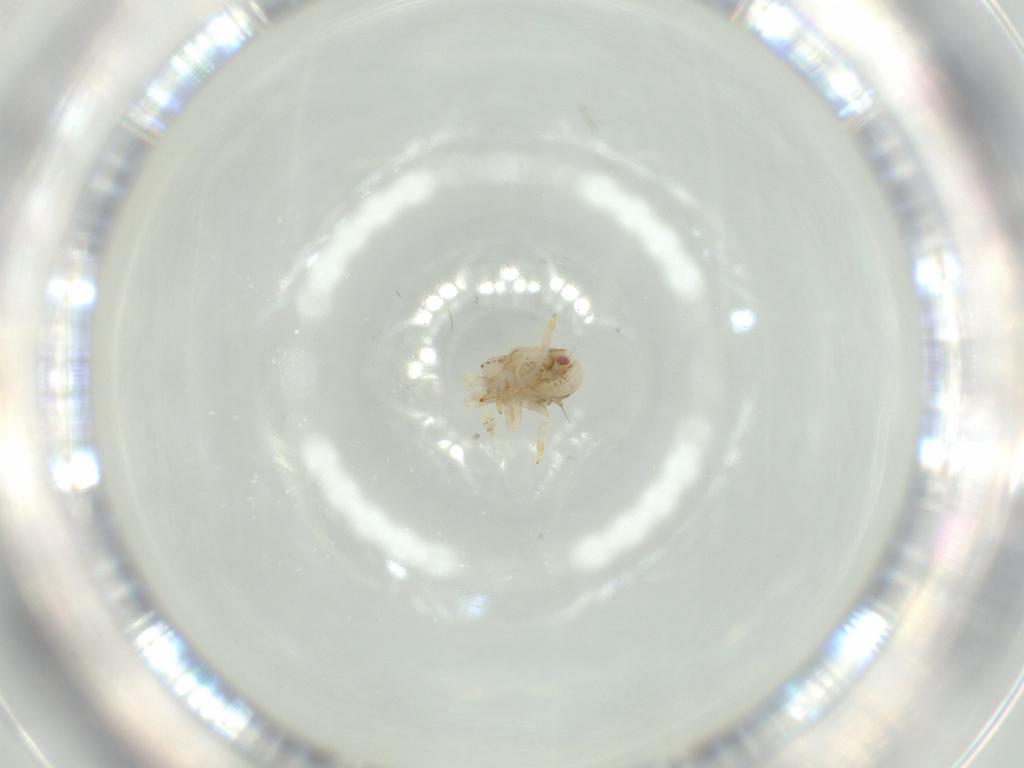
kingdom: Animalia
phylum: Arthropoda
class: Insecta
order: Hemiptera
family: Acanaloniidae
